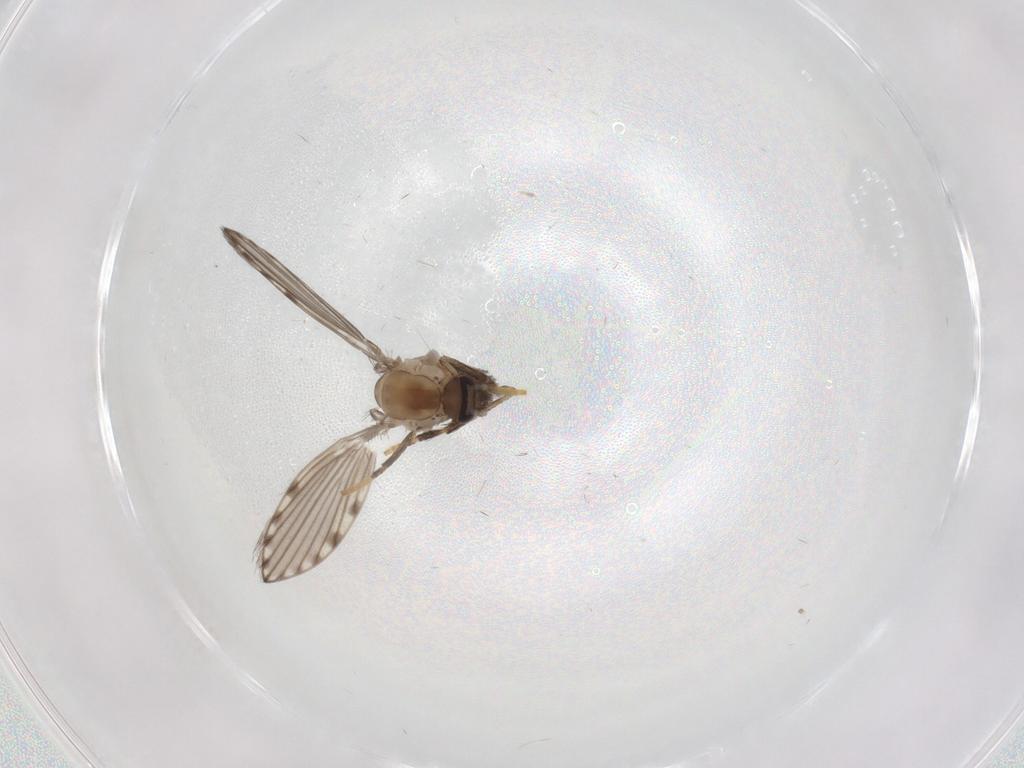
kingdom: Animalia
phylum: Arthropoda
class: Insecta
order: Diptera
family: Psychodidae
